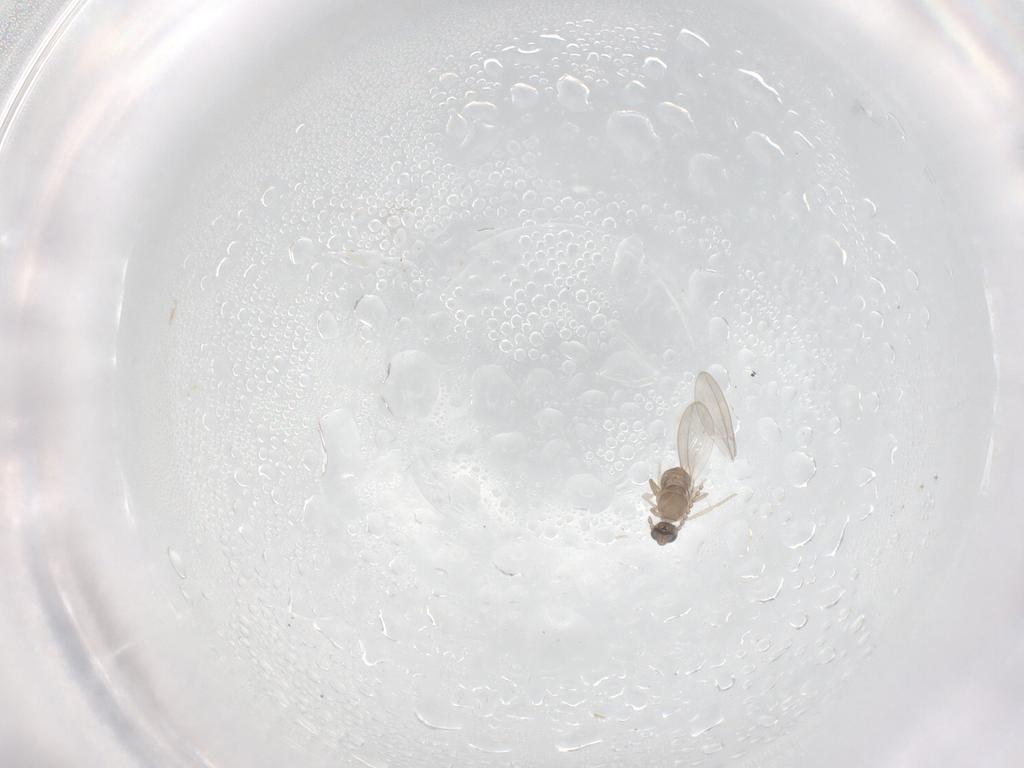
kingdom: Animalia
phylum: Arthropoda
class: Insecta
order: Diptera
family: Cecidomyiidae
